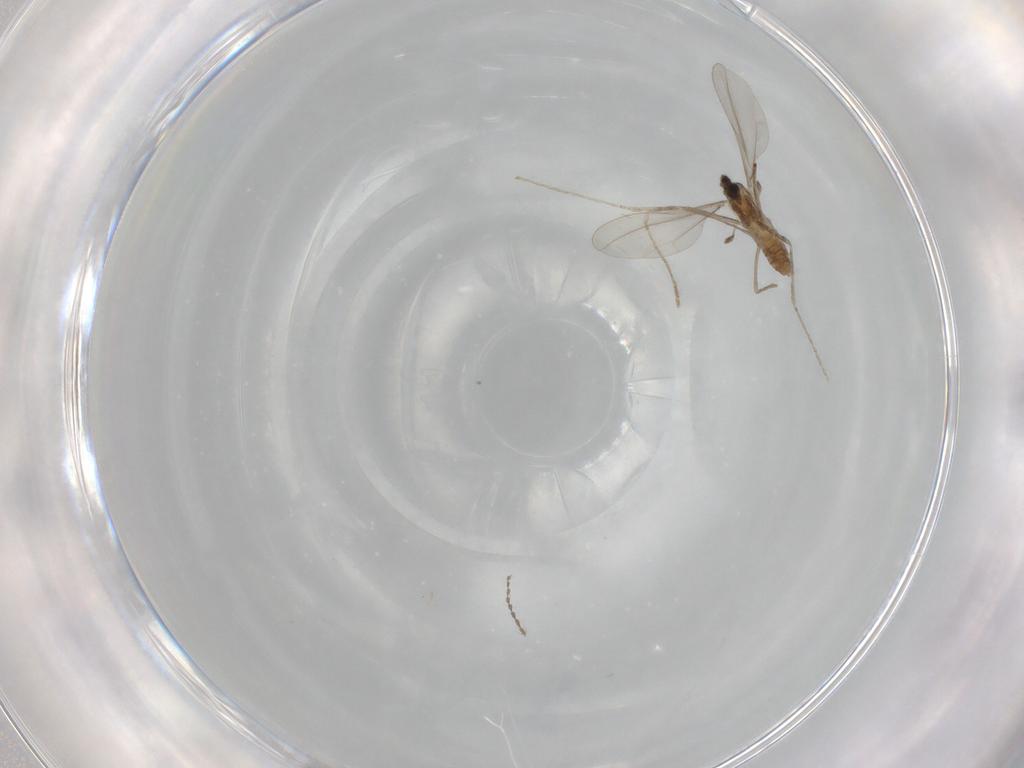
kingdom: Animalia
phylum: Arthropoda
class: Insecta
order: Diptera
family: Cecidomyiidae
